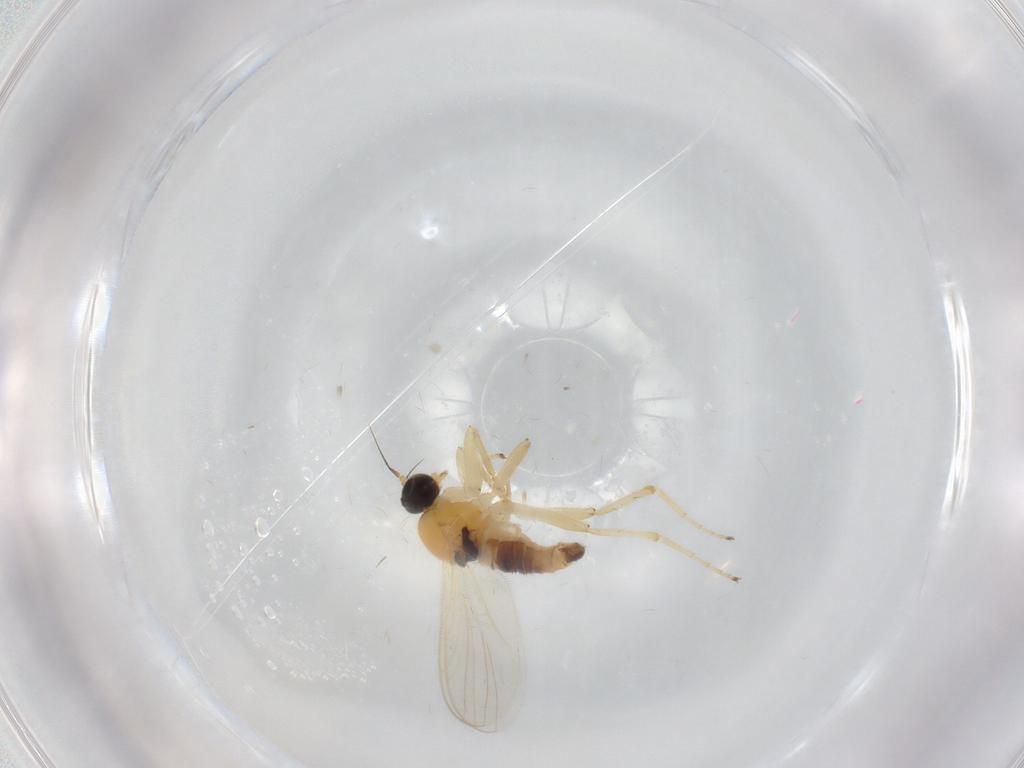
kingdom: Animalia
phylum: Arthropoda
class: Insecta
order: Diptera
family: Hybotidae
